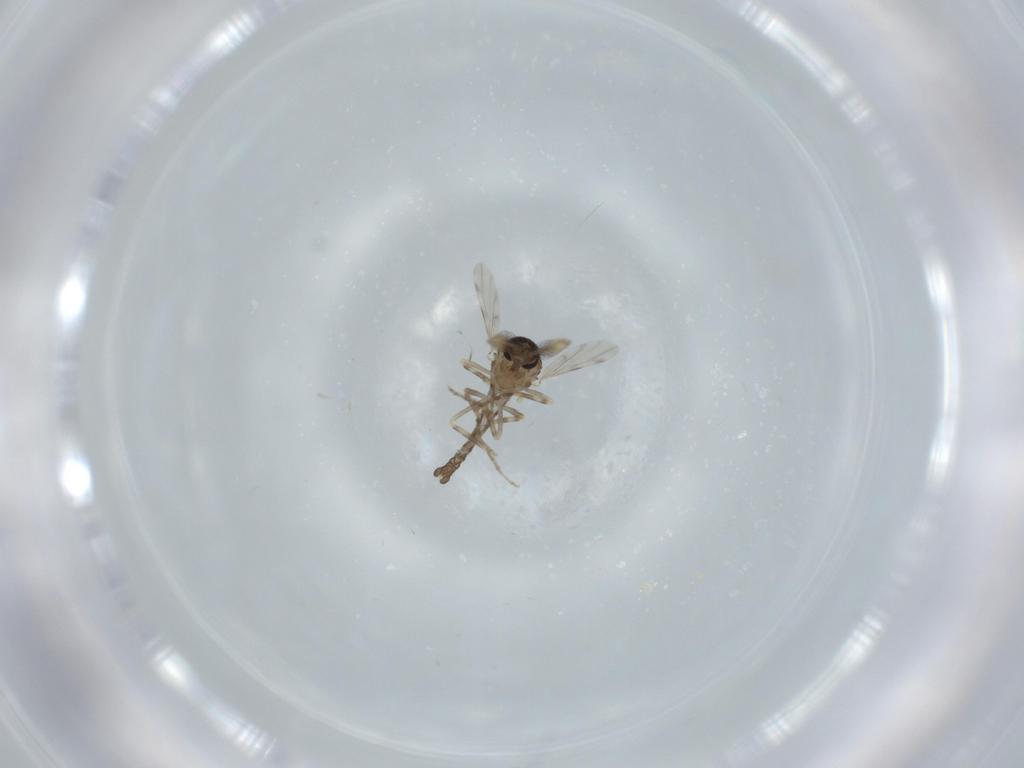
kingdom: Animalia
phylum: Arthropoda
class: Insecta
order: Diptera
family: Ceratopogonidae
